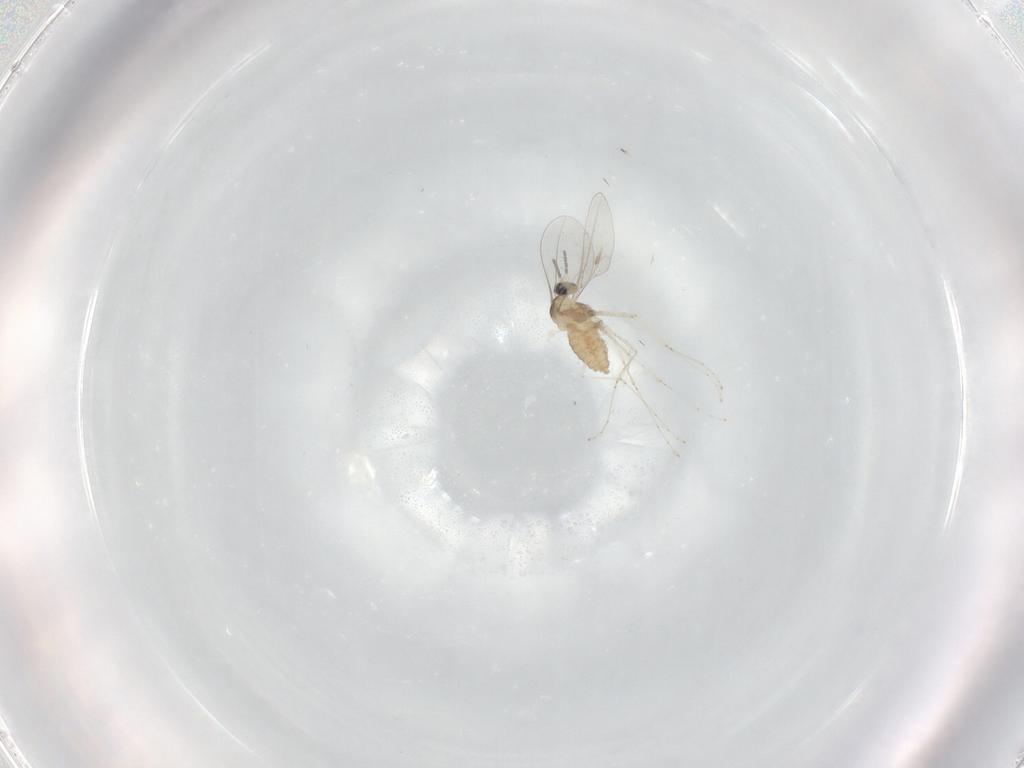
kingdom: Animalia
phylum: Arthropoda
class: Insecta
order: Diptera
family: Cecidomyiidae
